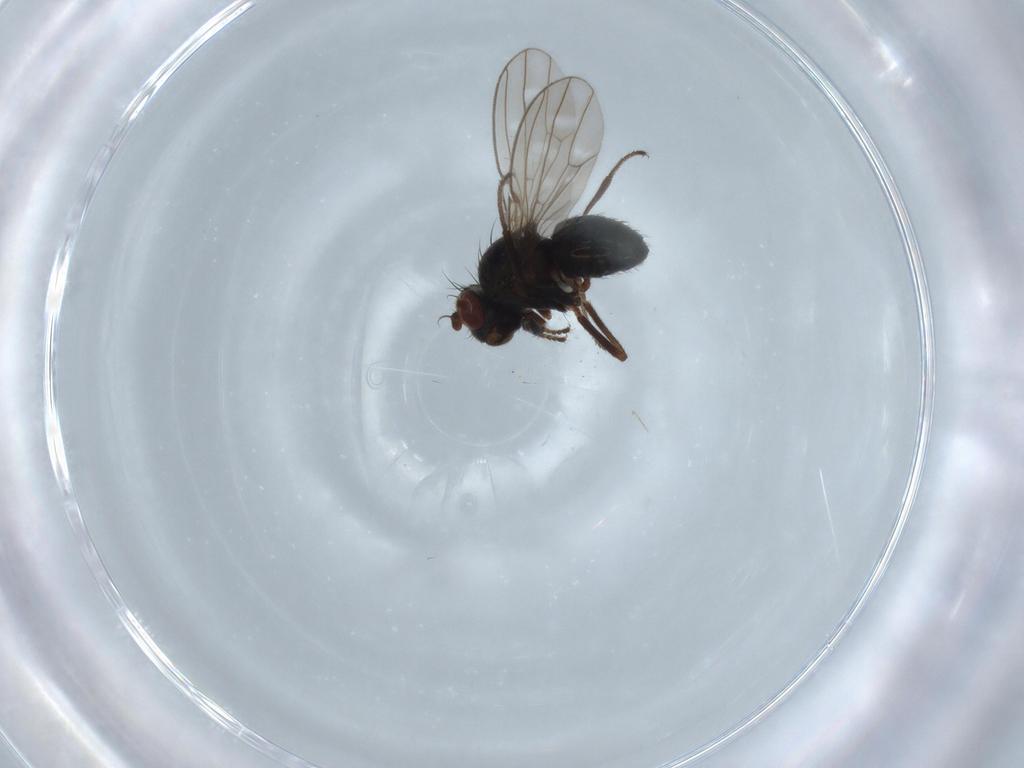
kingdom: Animalia
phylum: Arthropoda
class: Insecta
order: Diptera
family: Ephydridae
